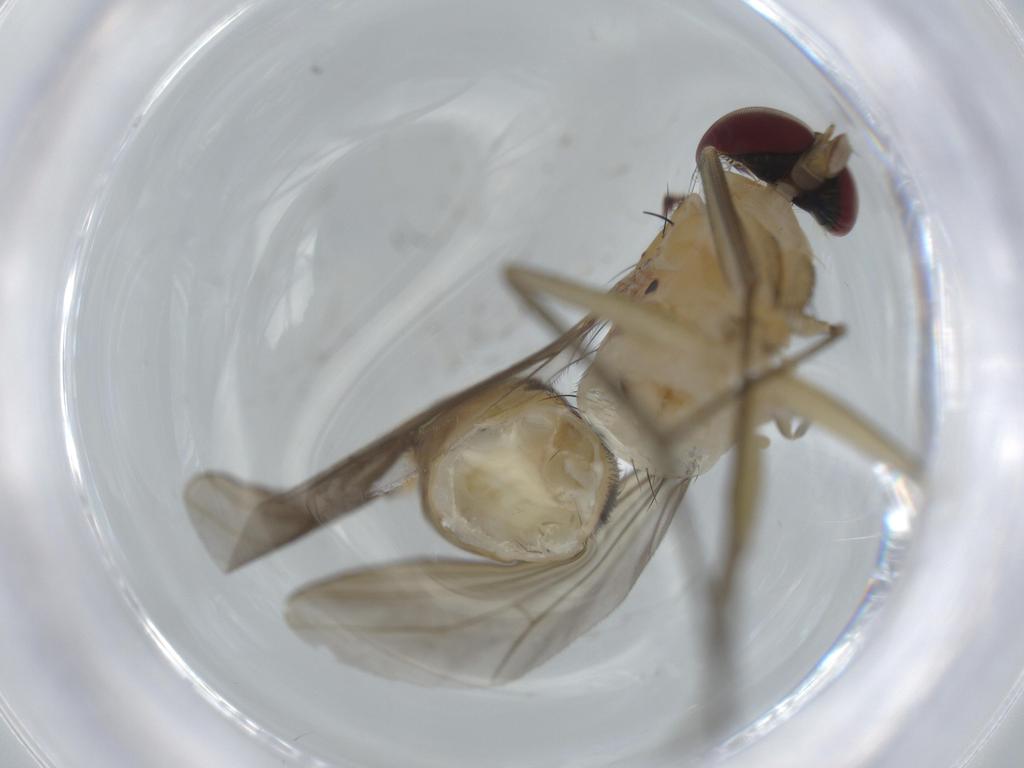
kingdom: Animalia
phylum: Arthropoda
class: Insecta
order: Diptera
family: Dolichopodidae
